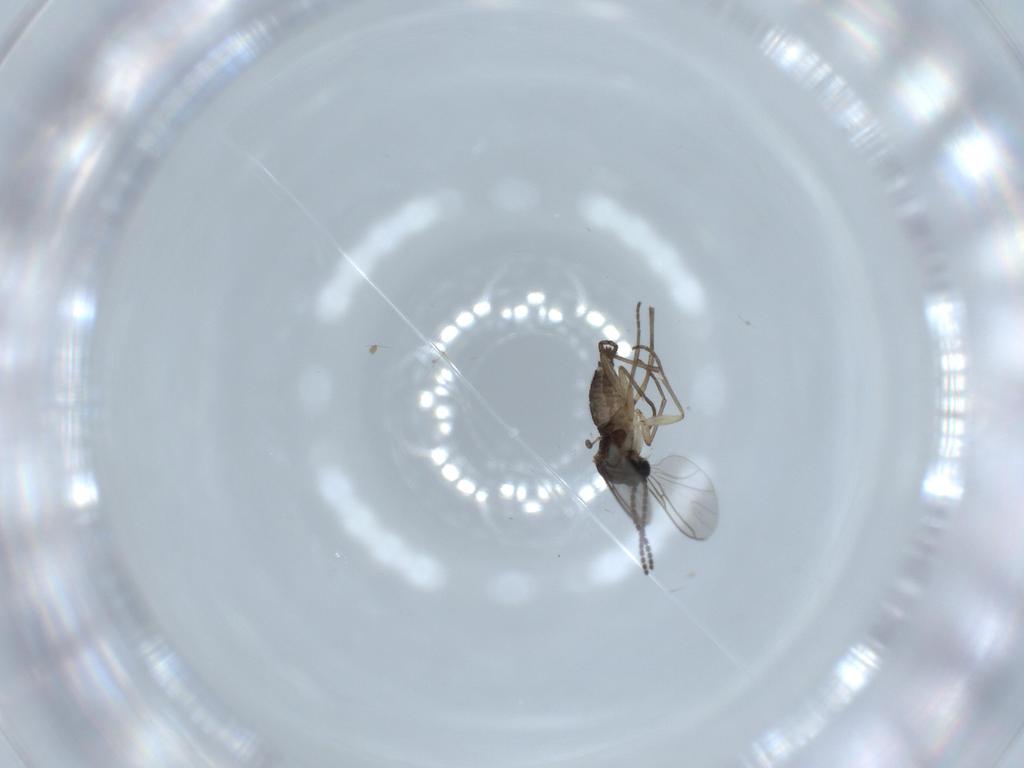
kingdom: Animalia
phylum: Arthropoda
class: Insecta
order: Diptera
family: Sciaridae
